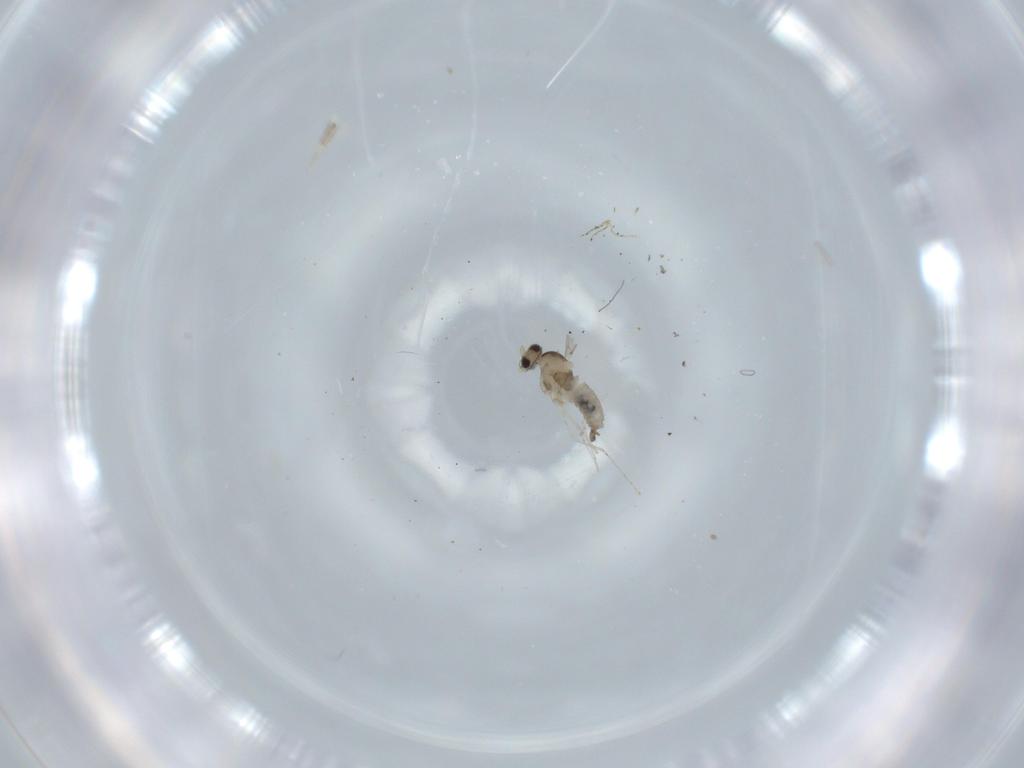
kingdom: Animalia
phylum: Arthropoda
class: Insecta
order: Diptera
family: Cecidomyiidae
